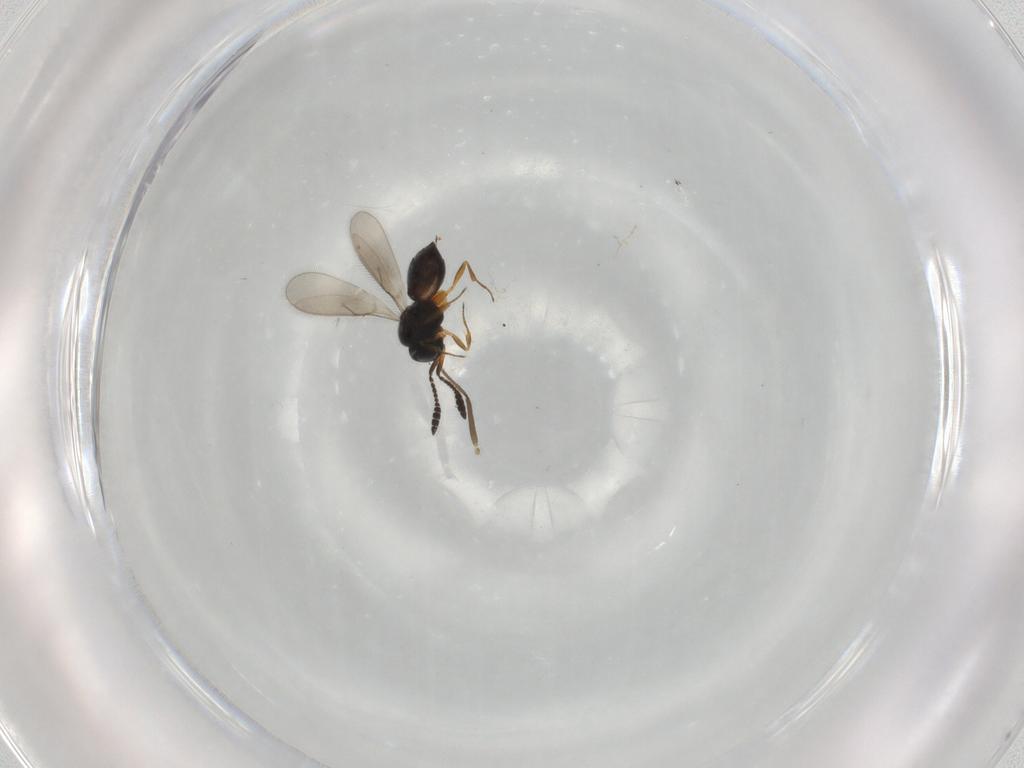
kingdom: Animalia
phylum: Arthropoda
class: Insecta
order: Hymenoptera
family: Scelionidae
